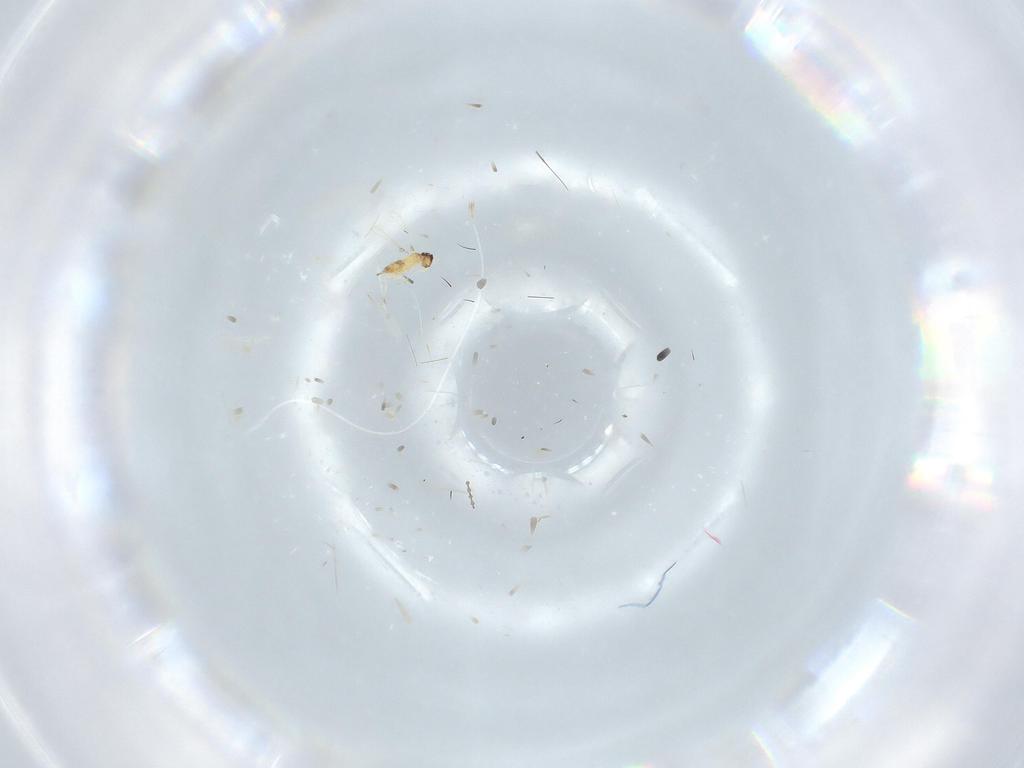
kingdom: Animalia
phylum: Arthropoda
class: Insecta
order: Hymenoptera
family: Mymaridae
